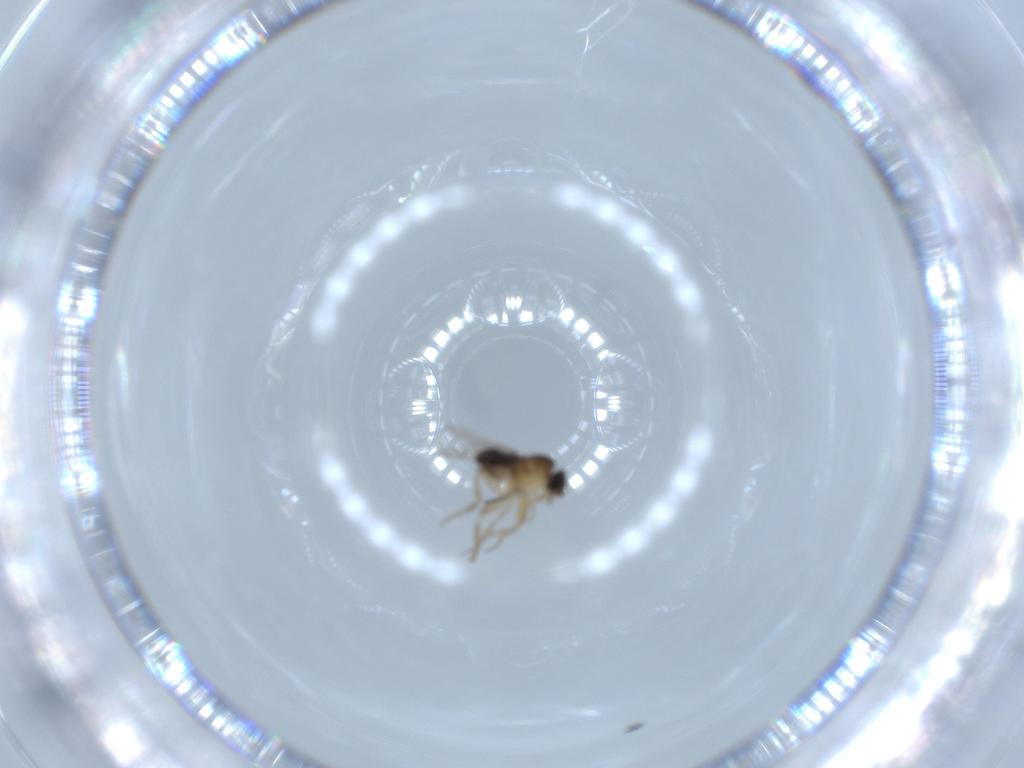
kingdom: Animalia
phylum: Arthropoda
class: Insecta
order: Diptera
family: Phoridae
